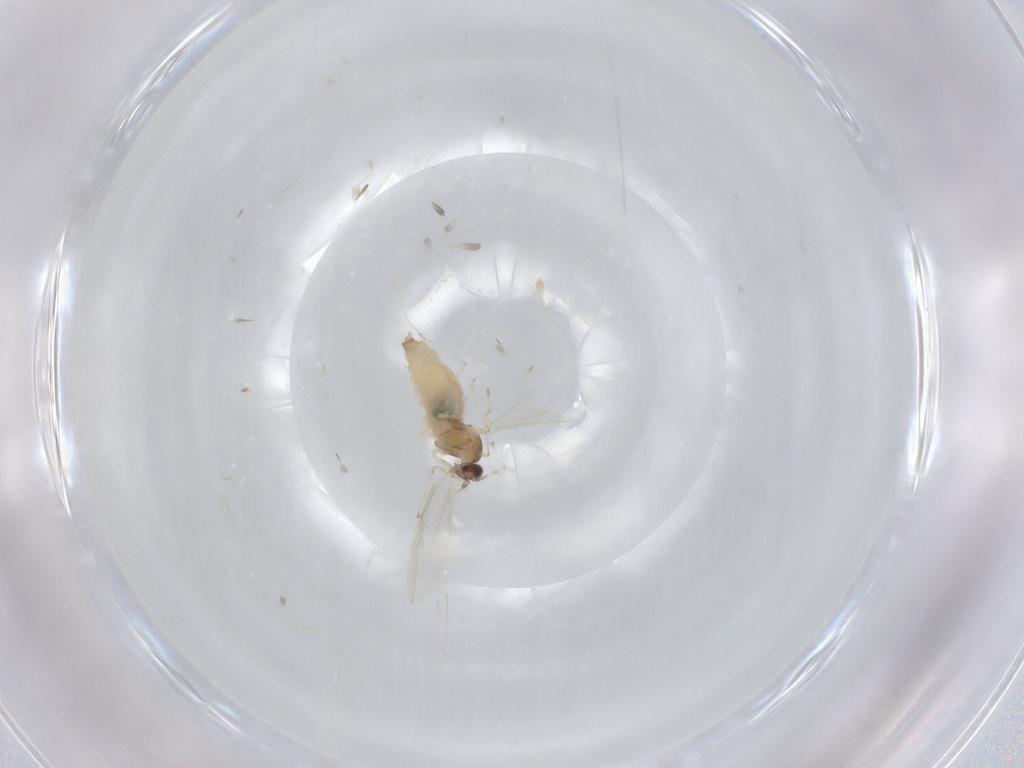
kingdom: Animalia
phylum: Arthropoda
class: Insecta
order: Diptera
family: Cecidomyiidae
